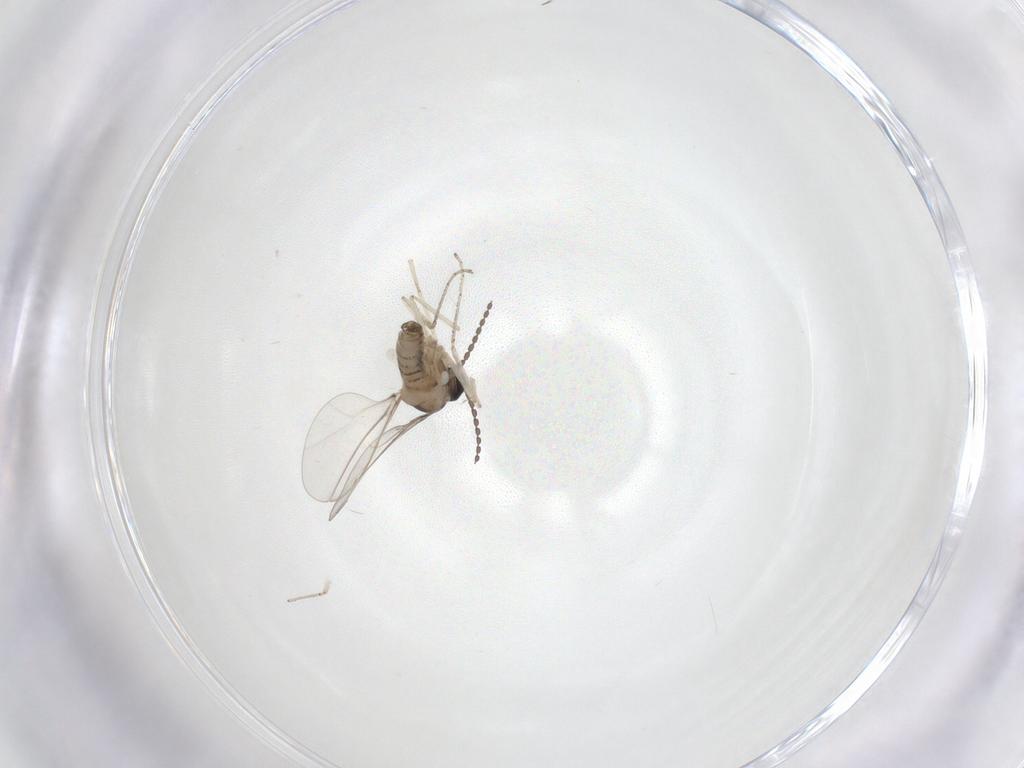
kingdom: Animalia
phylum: Arthropoda
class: Insecta
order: Diptera
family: Cecidomyiidae
